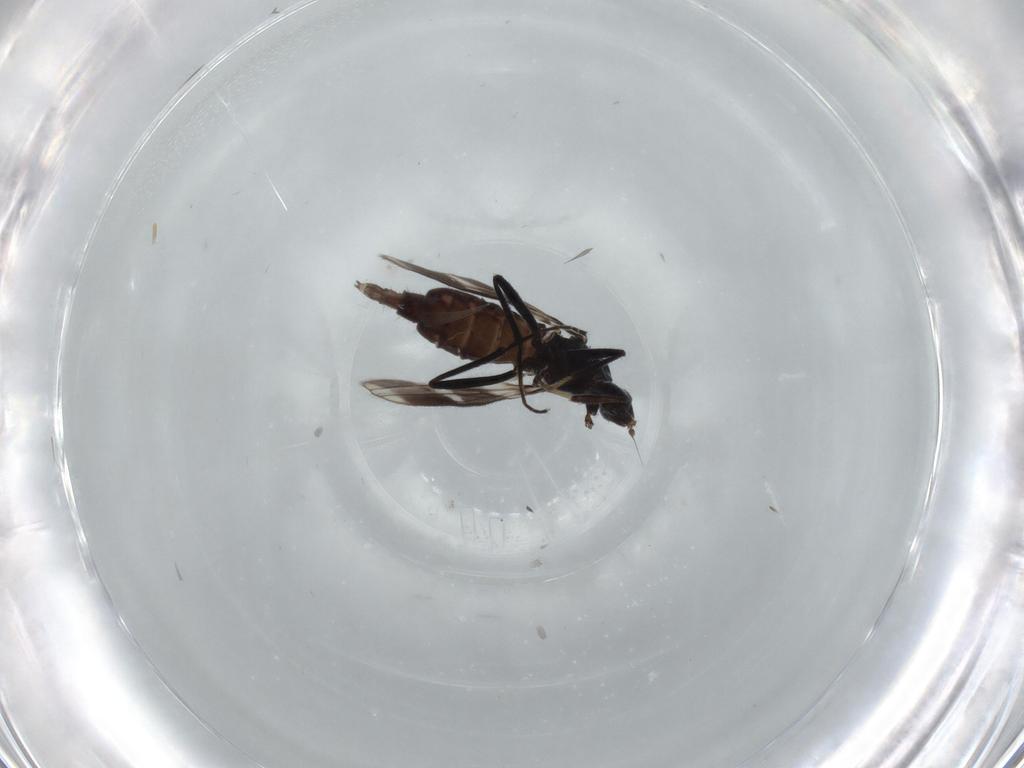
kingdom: Animalia
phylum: Arthropoda
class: Insecta
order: Diptera
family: Hybotidae
